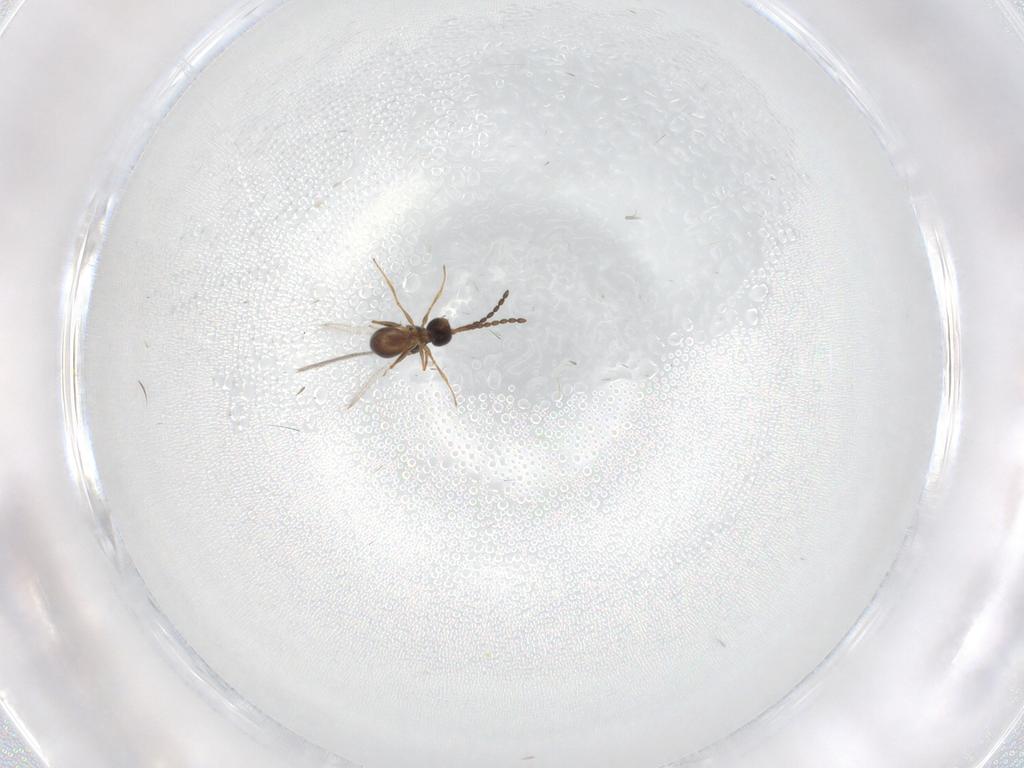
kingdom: Animalia
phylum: Arthropoda
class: Insecta
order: Hymenoptera
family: Figitidae
